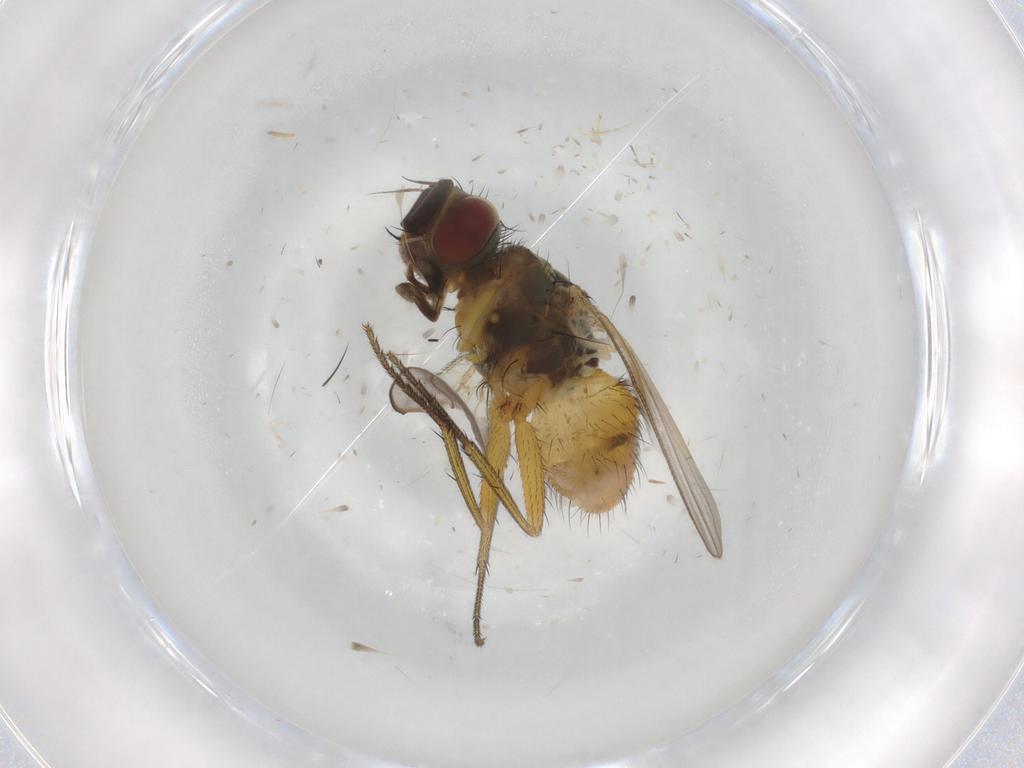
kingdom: Animalia
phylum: Arthropoda
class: Insecta
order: Diptera
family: Muscidae
